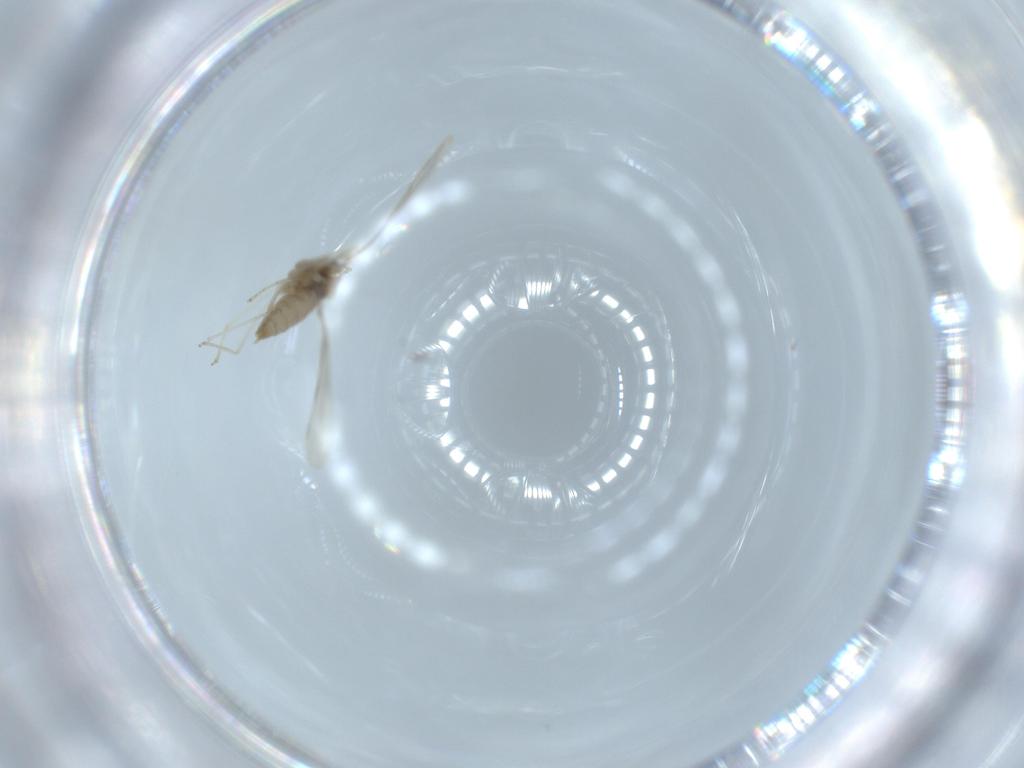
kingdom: Animalia
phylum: Arthropoda
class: Insecta
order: Diptera
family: Cecidomyiidae
